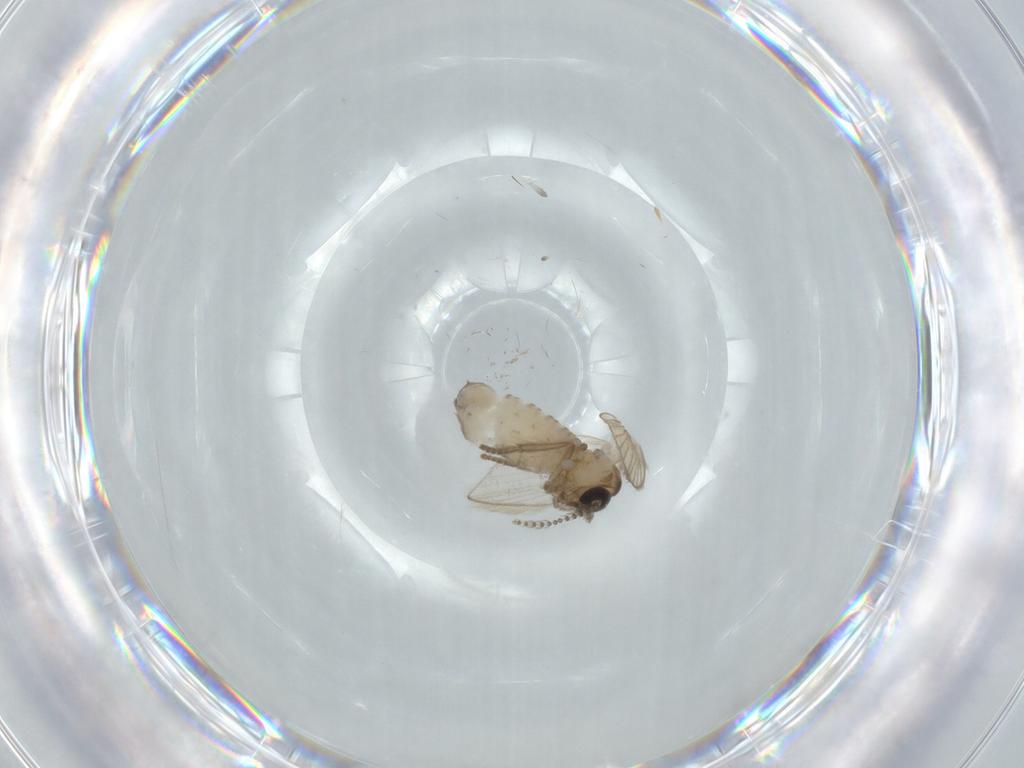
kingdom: Animalia
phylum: Arthropoda
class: Insecta
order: Diptera
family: Psychodidae
